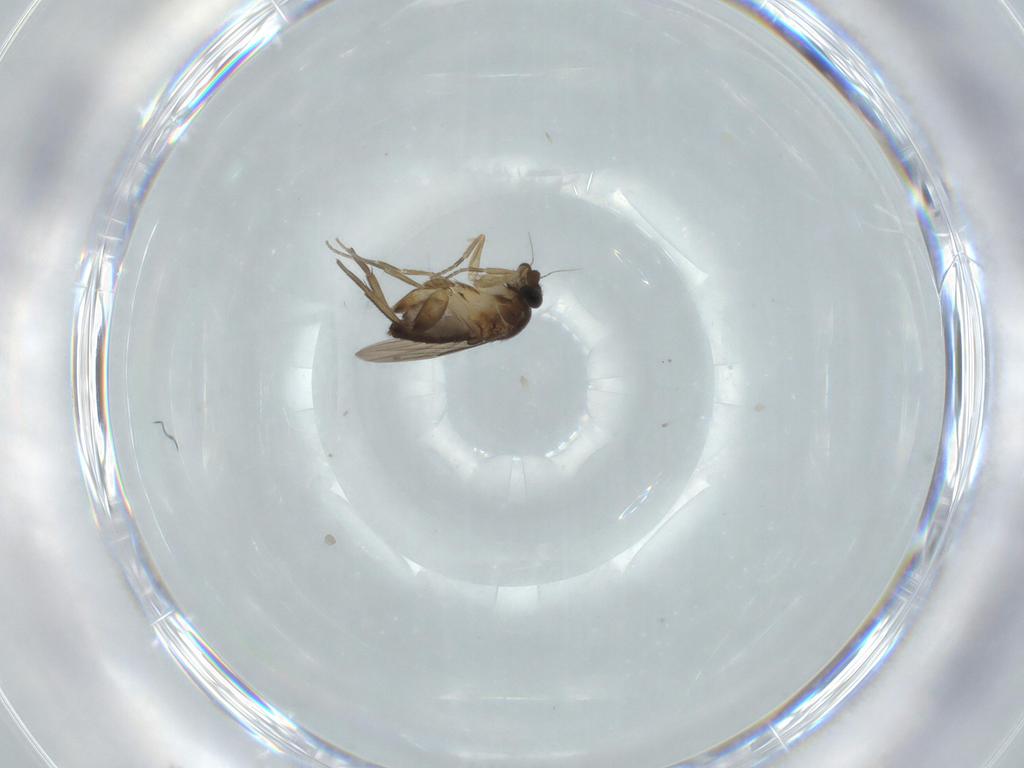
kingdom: Animalia
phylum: Arthropoda
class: Insecta
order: Diptera
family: Phoridae
